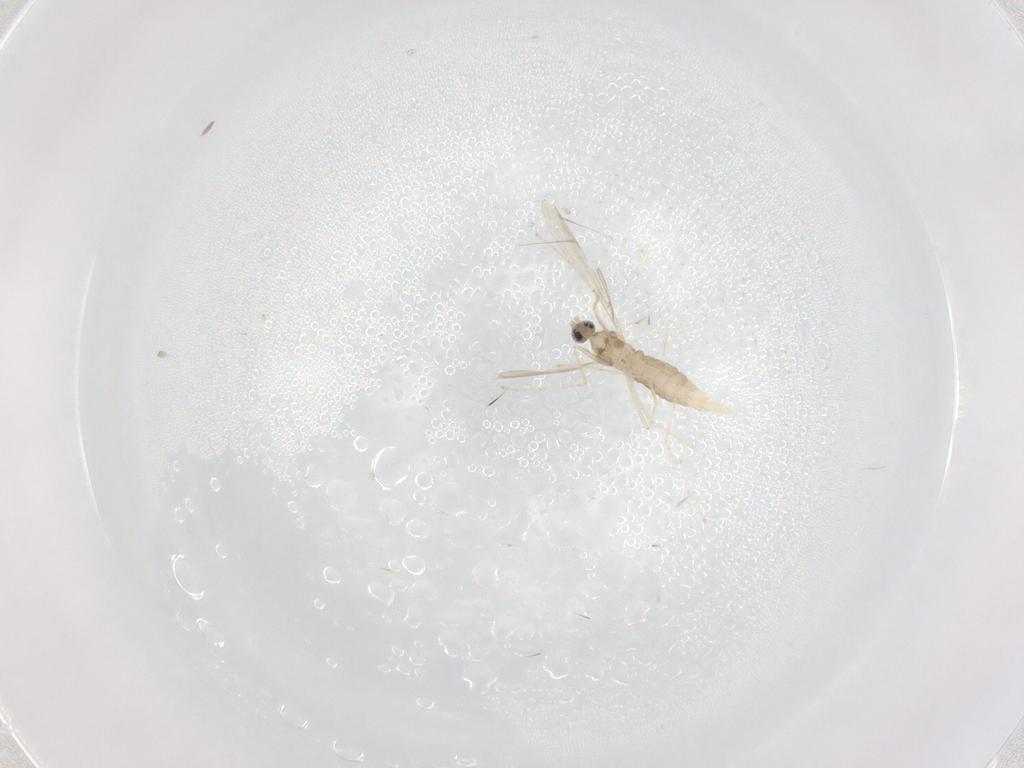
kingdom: Animalia
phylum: Arthropoda
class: Insecta
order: Diptera
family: Cecidomyiidae
